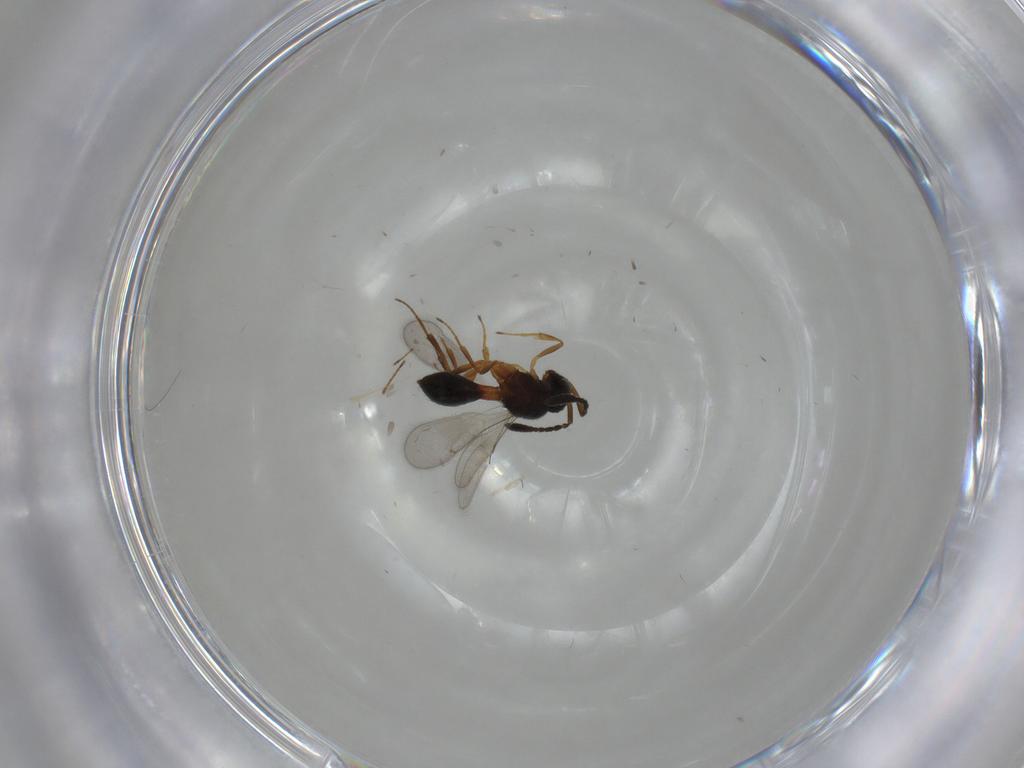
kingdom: Animalia
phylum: Arthropoda
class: Insecta
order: Hymenoptera
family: Scelionidae
